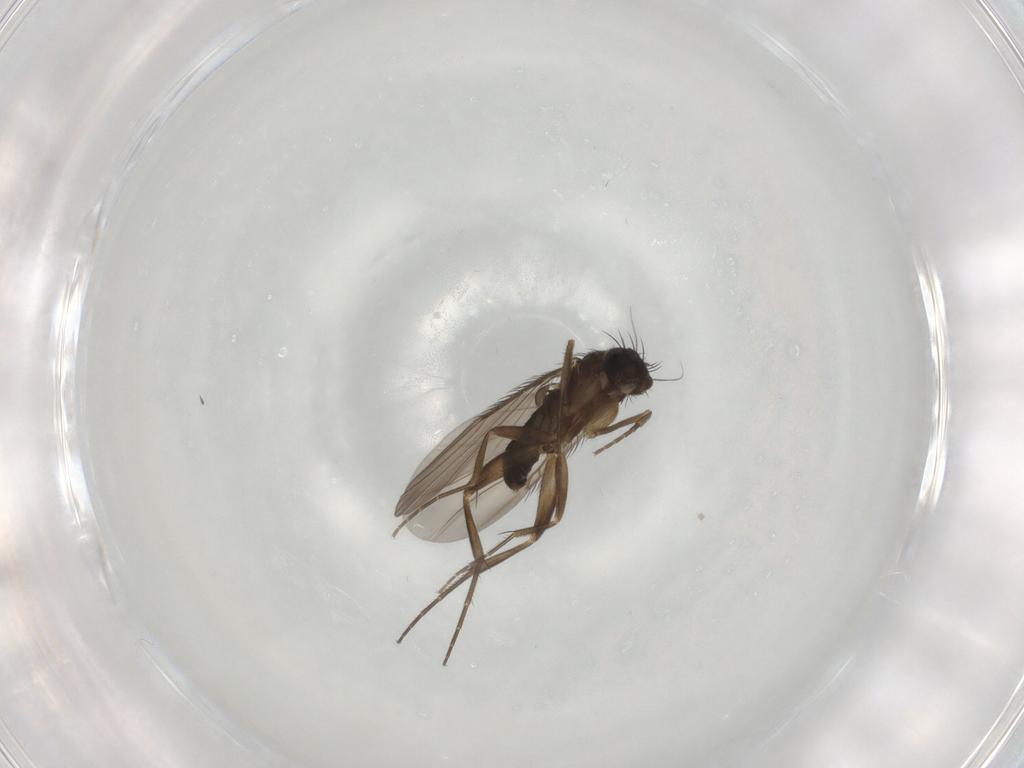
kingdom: Animalia
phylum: Arthropoda
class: Insecta
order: Diptera
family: Phoridae
